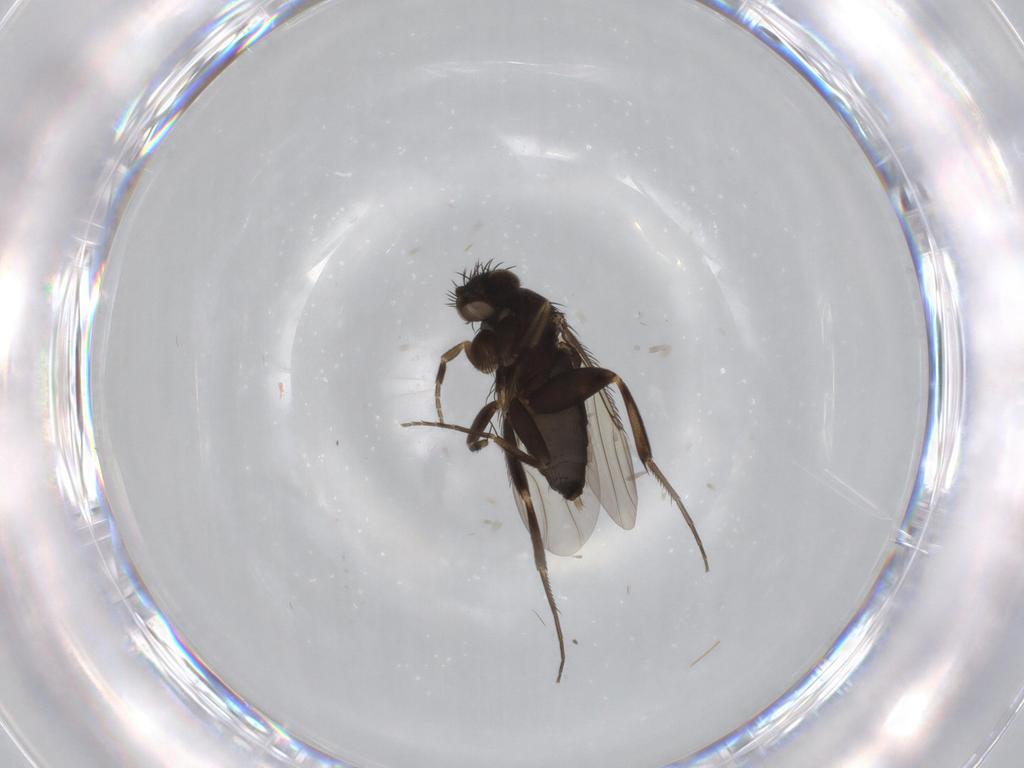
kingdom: Animalia
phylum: Arthropoda
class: Insecta
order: Diptera
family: Phoridae
